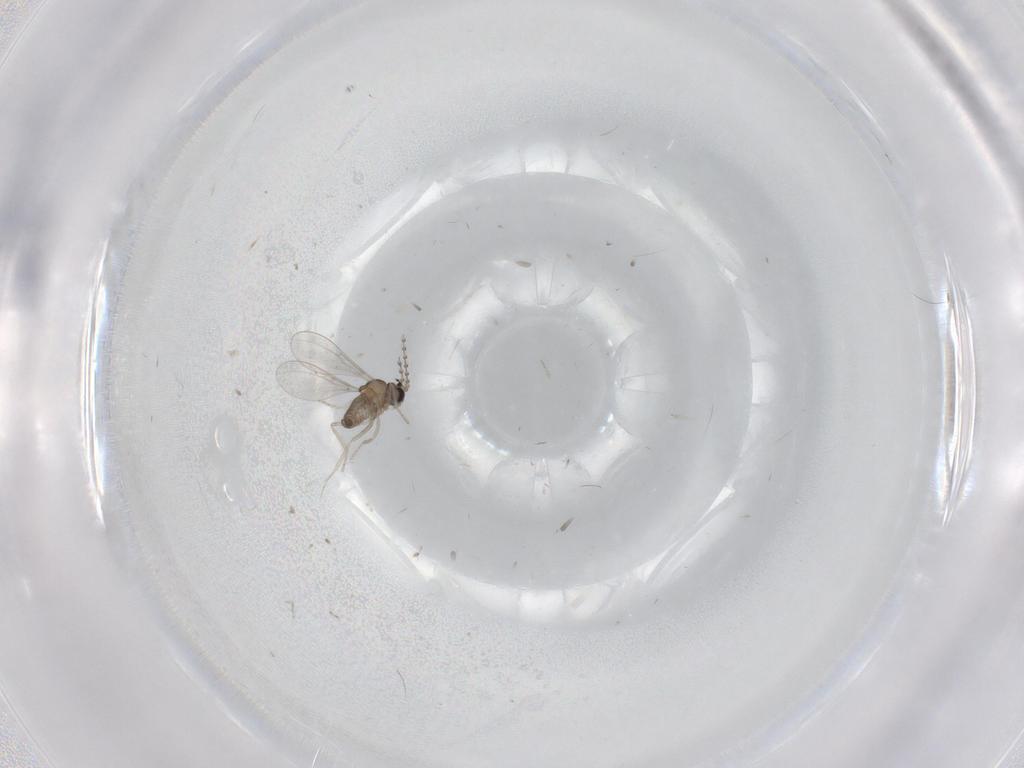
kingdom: Animalia
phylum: Arthropoda
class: Insecta
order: Diptera
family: Cecidomyiidae
